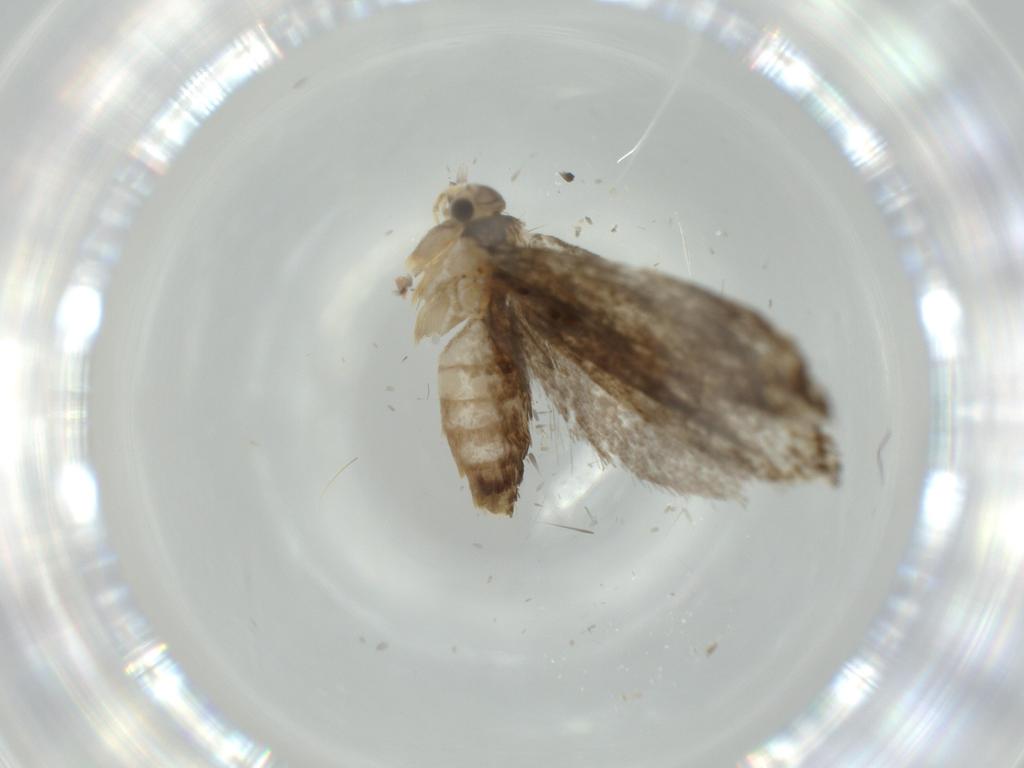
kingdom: Animalia
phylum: Arthropoda
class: Insecta
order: Lepidoptera
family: Tineidae
